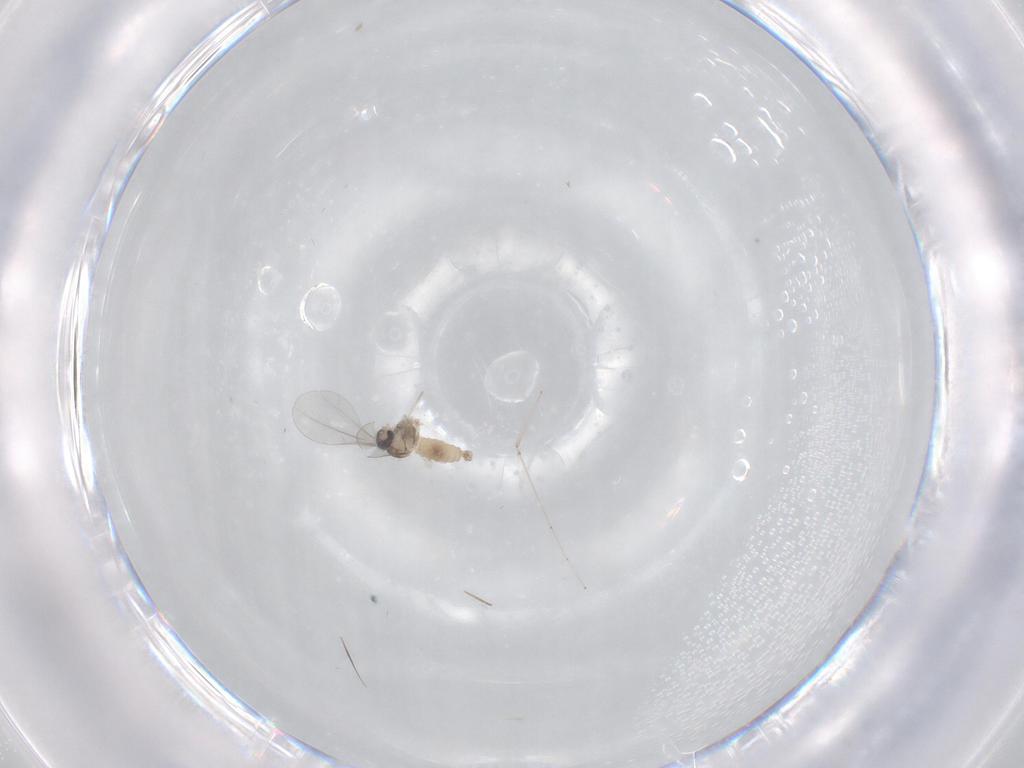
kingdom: Animalia
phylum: Arthropoda
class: Insecta
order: Diptera
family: Cecidomyiidae
